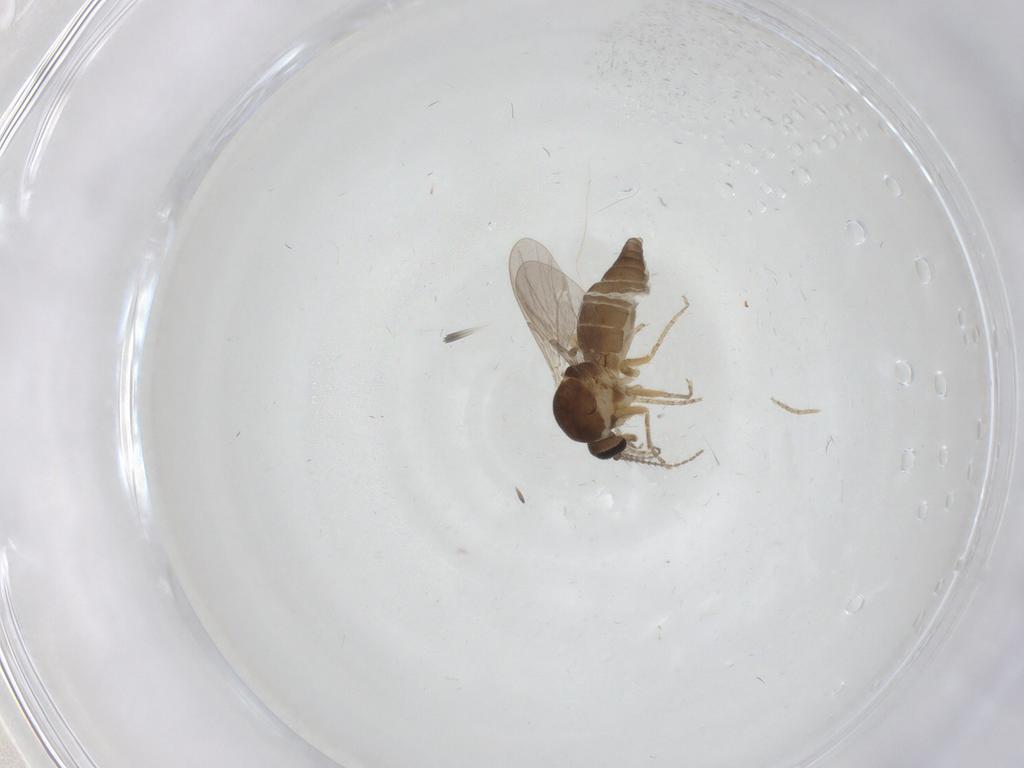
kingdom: Animalia
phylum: Arthropoda
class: Insecta
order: Diptera
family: Ceratopogonidae
